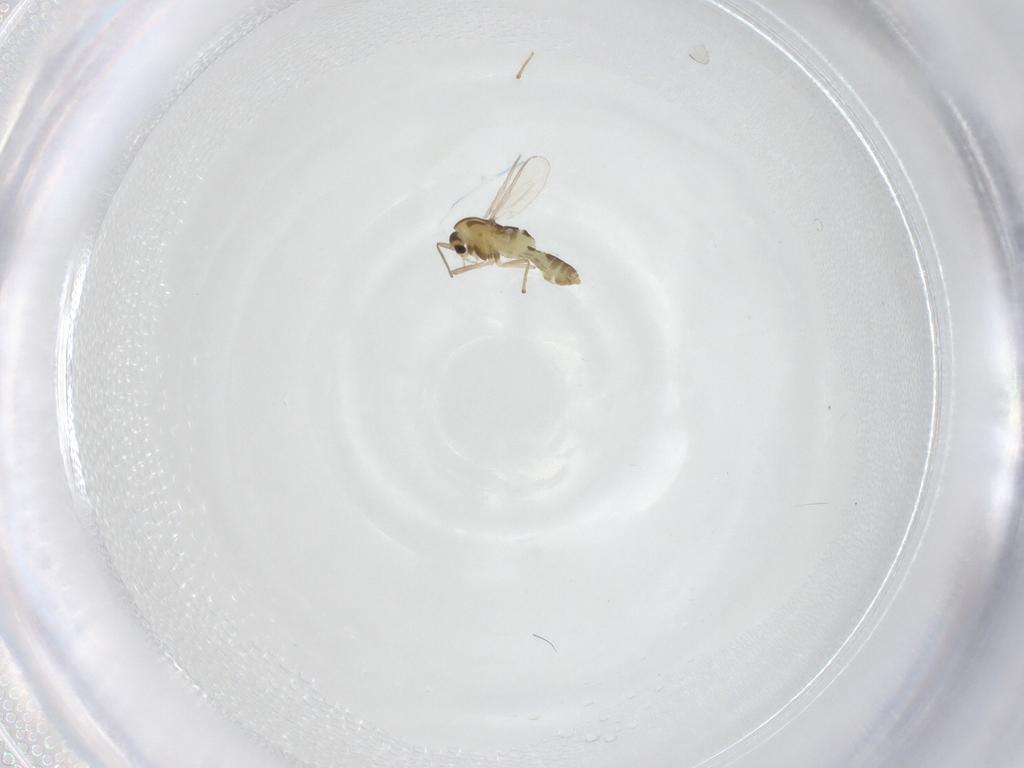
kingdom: Animalia
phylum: Arthropoda
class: Insecta
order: Diptera
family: Chironomidae
